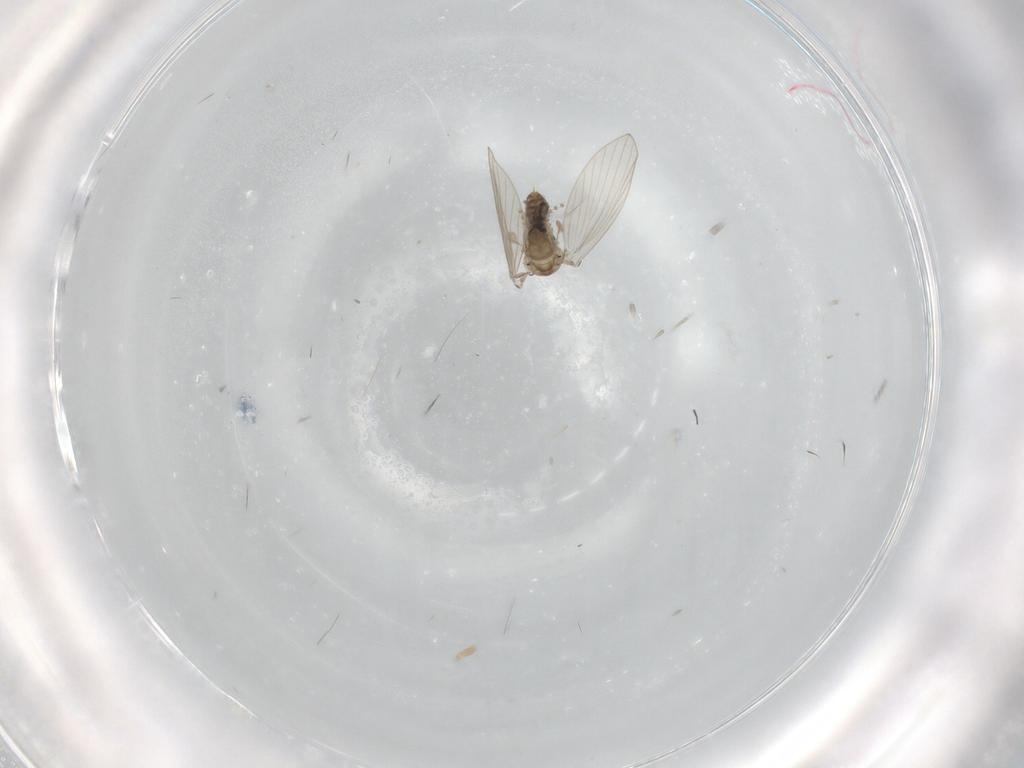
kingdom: Animalia
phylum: Arthropoda
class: Insecta
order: Diptera
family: Psychodidae
